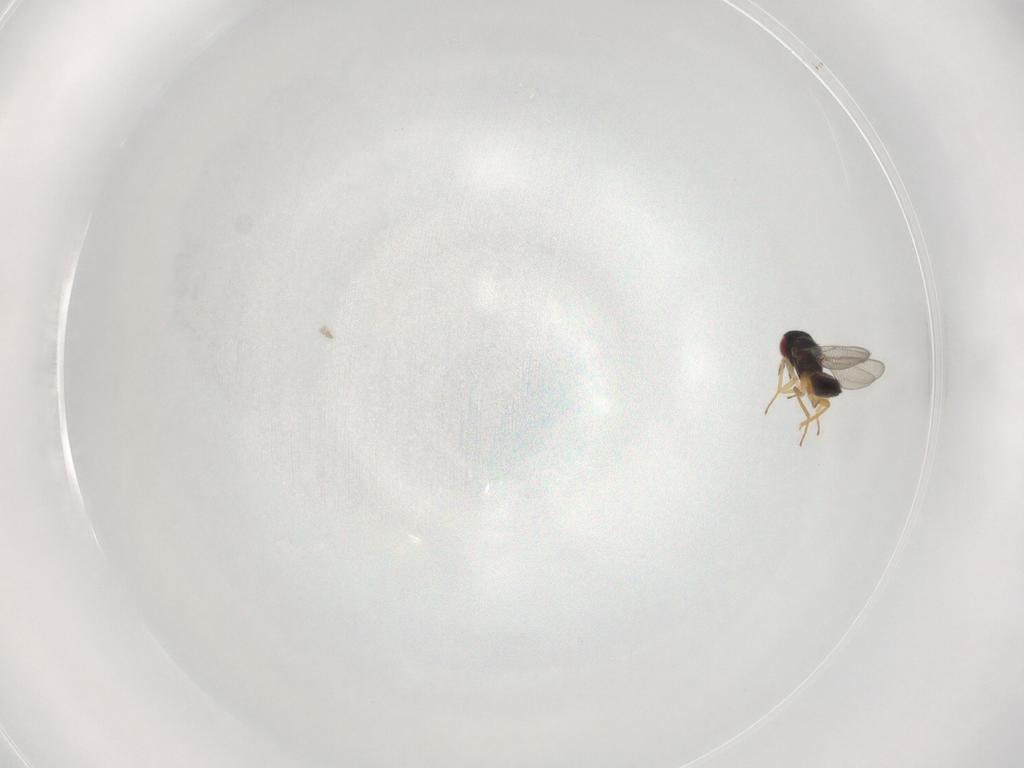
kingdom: Animalia
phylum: Arthropoda
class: Insecta
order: Hymenoptera
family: Eulophidae
